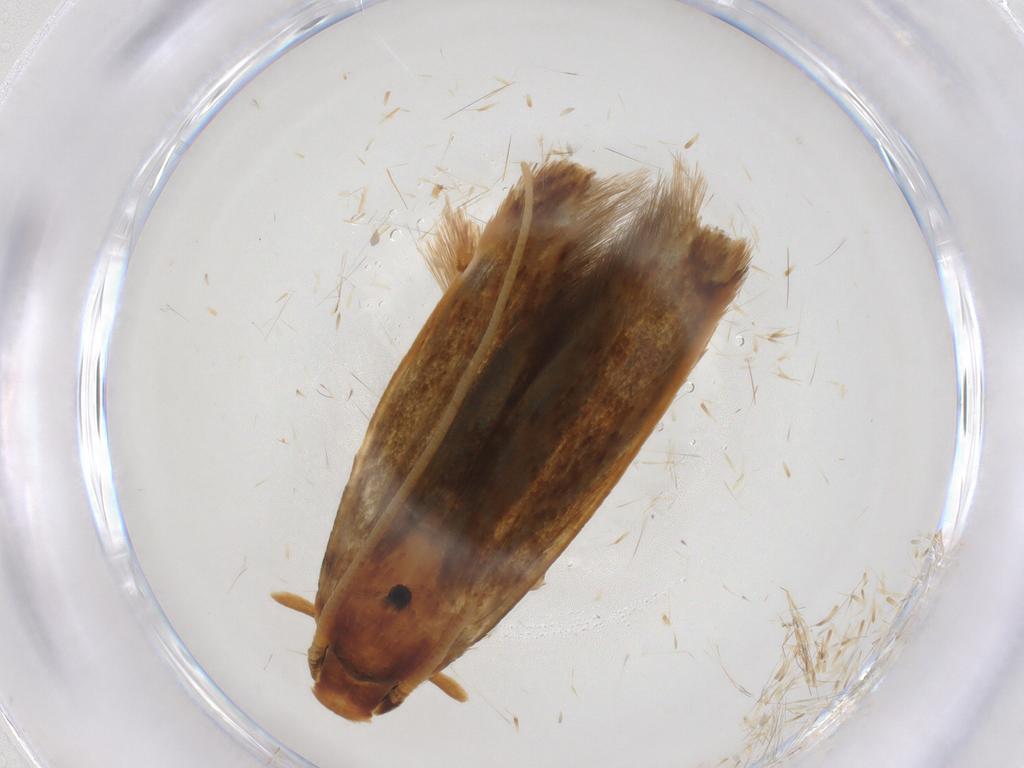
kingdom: Animalia
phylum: Arthropoda
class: Insecta
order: Lepidoptera
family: Tineidae
